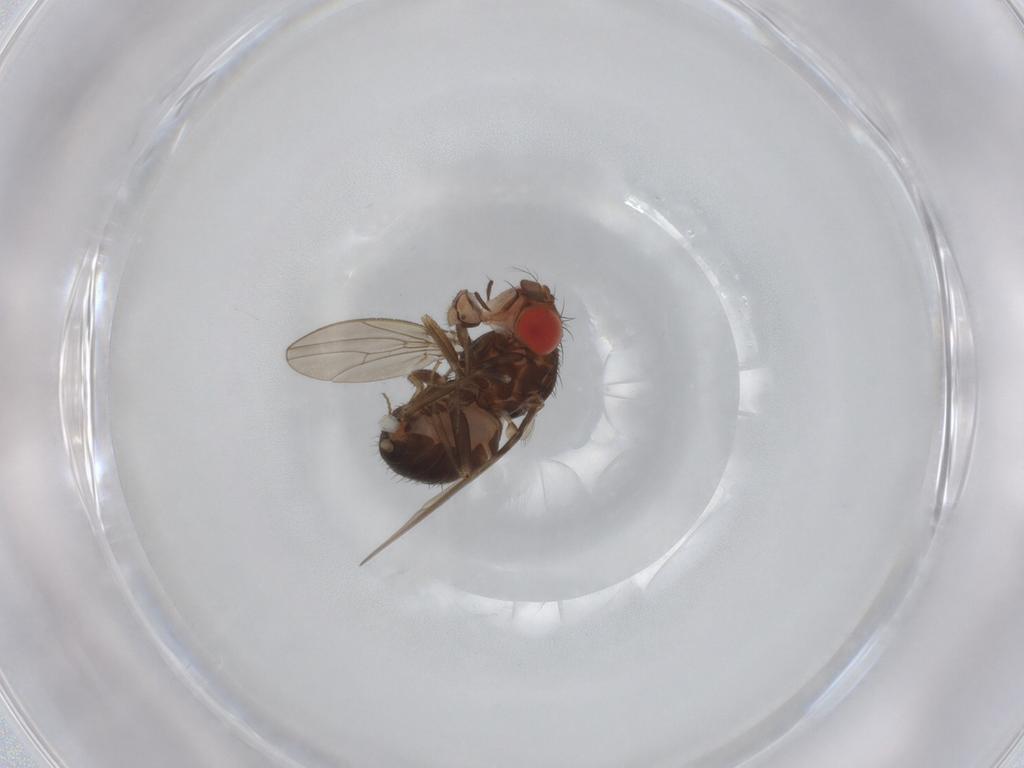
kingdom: Animalia
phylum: Arthropoda
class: Insecta
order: Diptera
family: Drosophilidae
